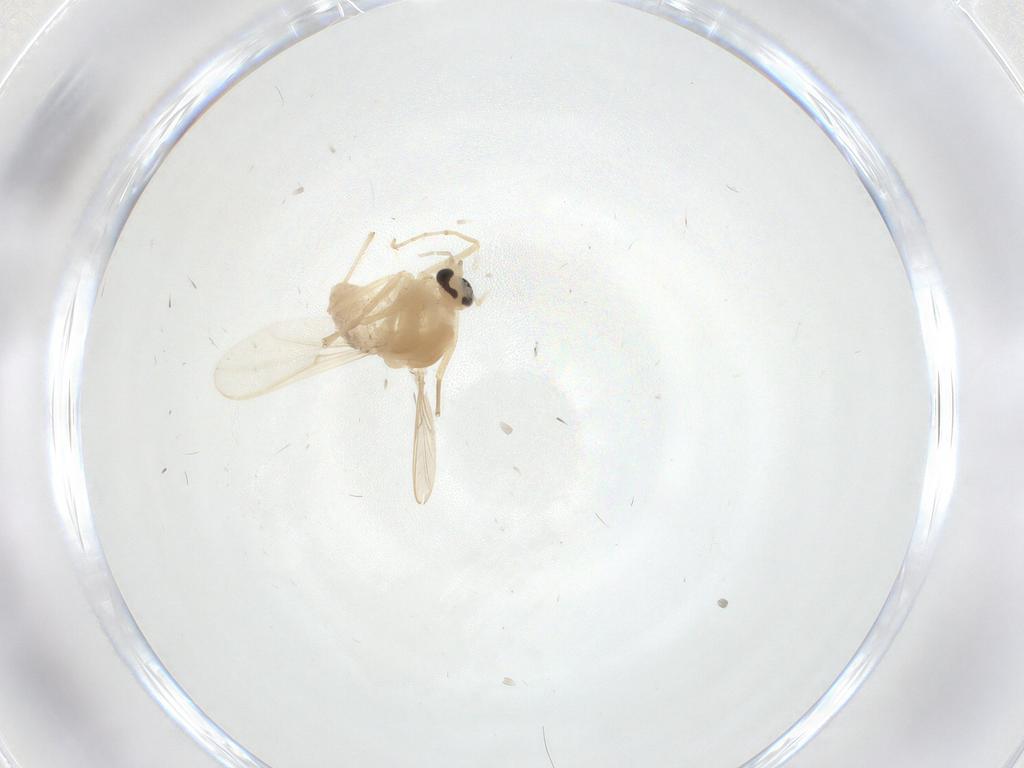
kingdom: Animalia
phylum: Arthropoda
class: Insecta
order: Diptera
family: Chironomidae
